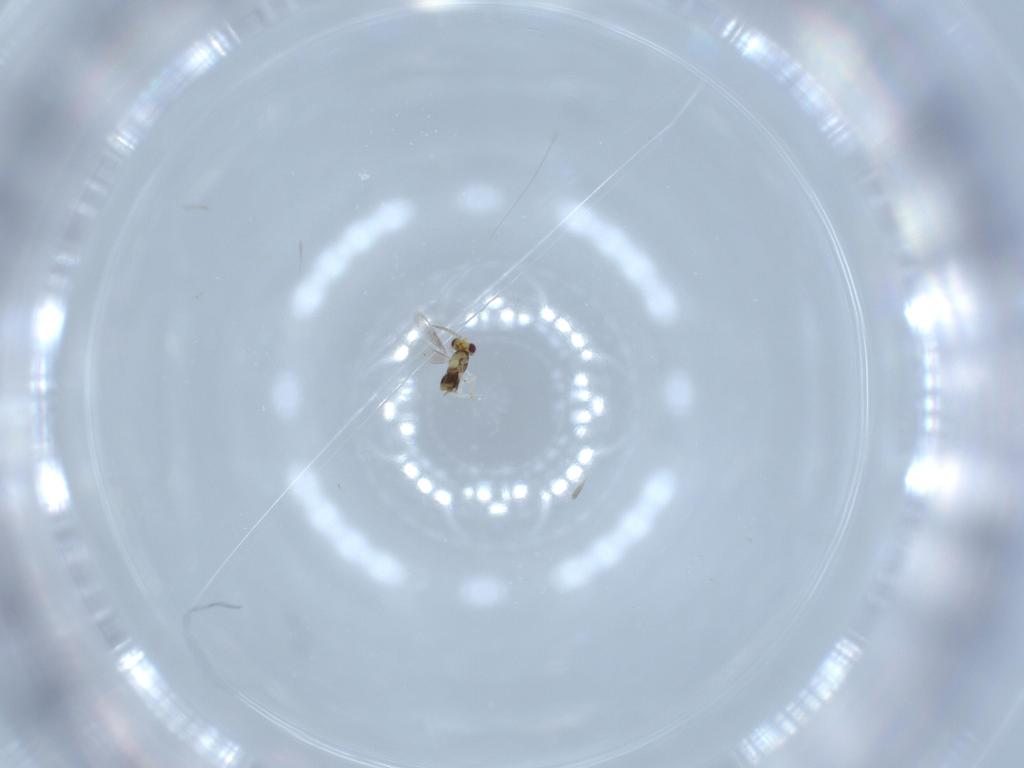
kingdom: Animalia
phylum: Arthropoda
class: Insecta
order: Hymenoptera
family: Aphelinidae
